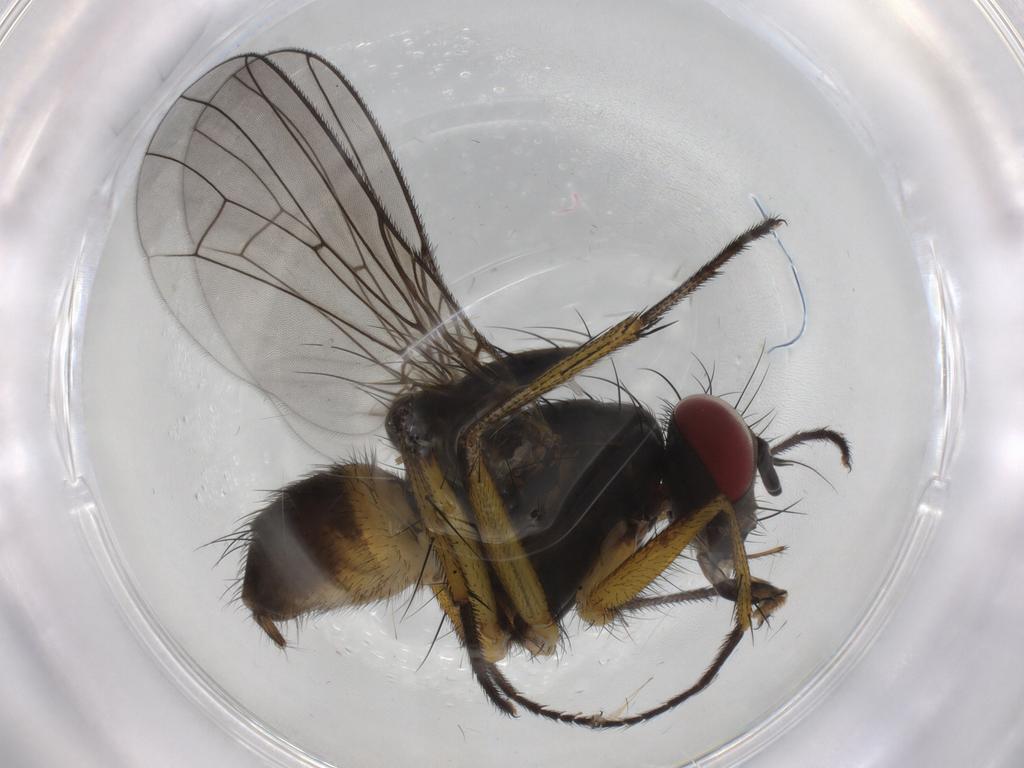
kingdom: Animalia
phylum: Arthropoda
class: Insecta
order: Diptera
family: Muscidae
